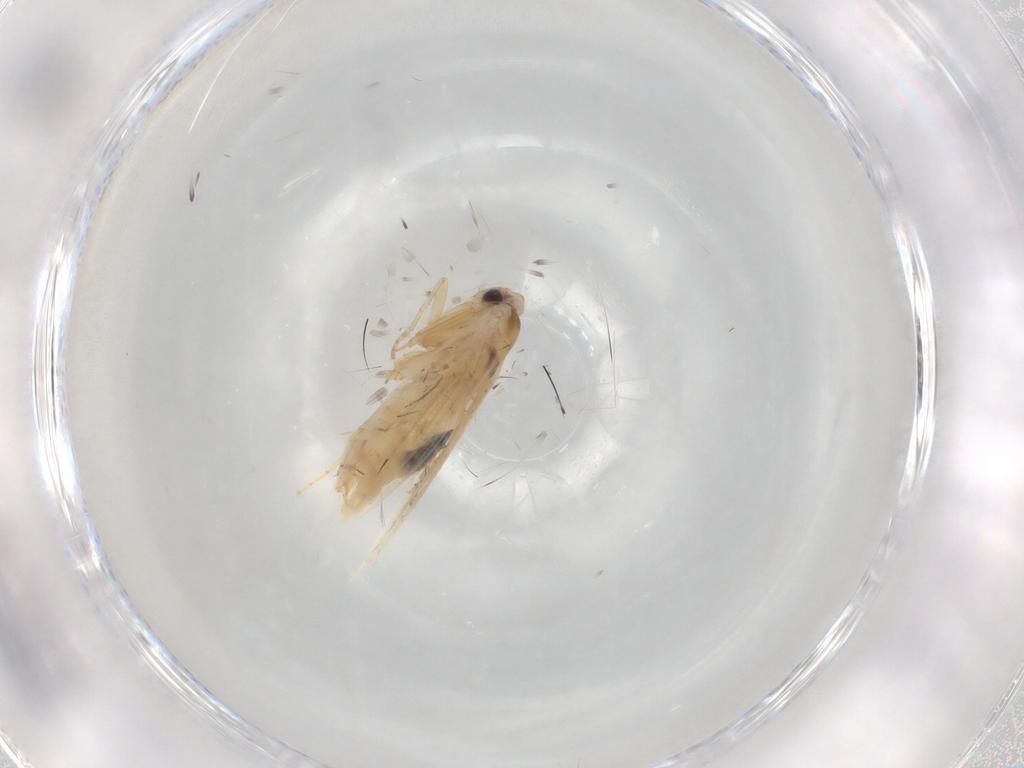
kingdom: Animalia
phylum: Arthropoda
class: Insecta
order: Lepidoptera
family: Bucculatricidae
